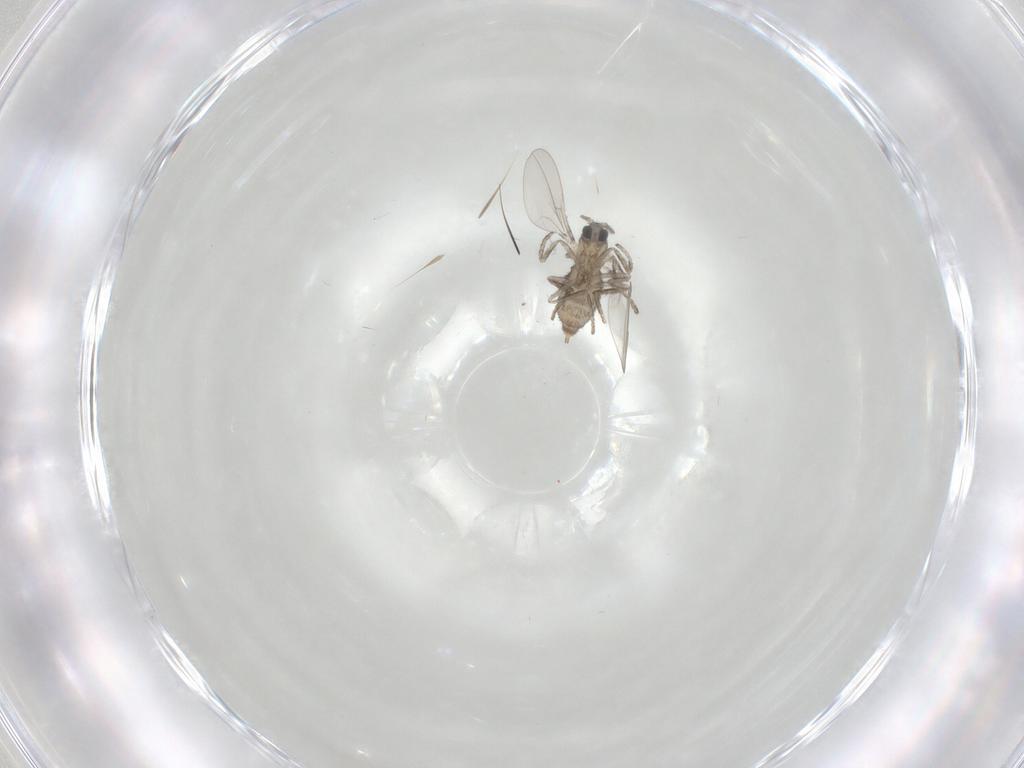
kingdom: Animalia
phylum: Arthropoda
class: Insecta
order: Diptera
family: Cecidomyiidae
